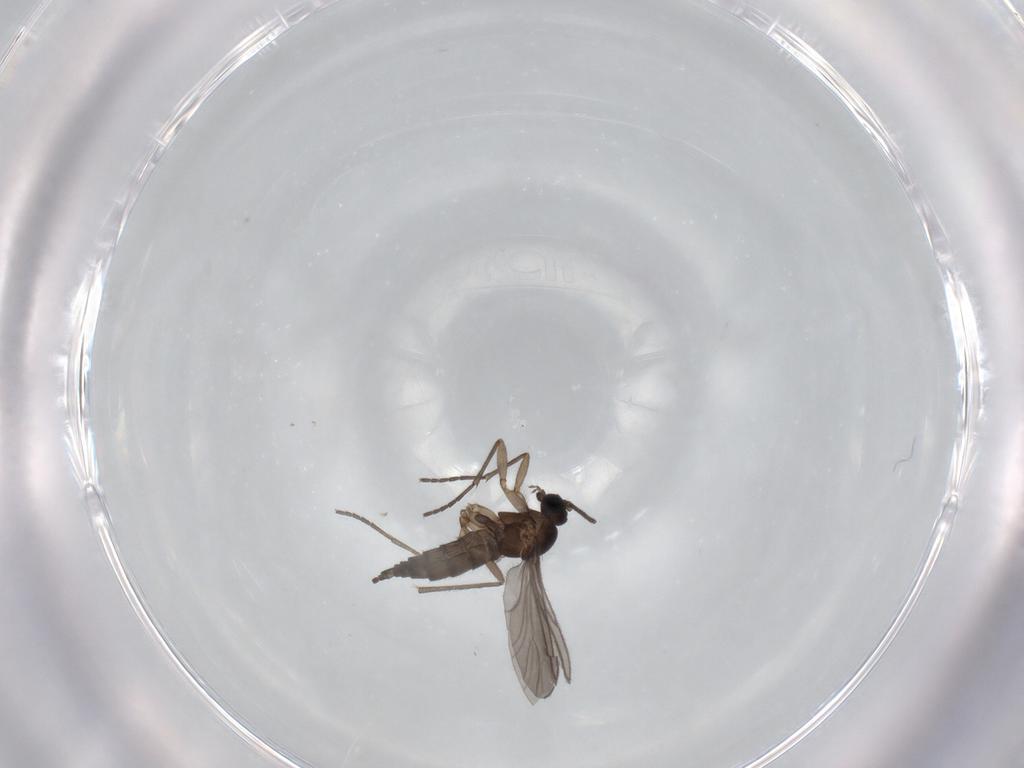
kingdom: Animalia
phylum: Arthropoda
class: Insecta
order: Diptera
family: Sciaridae
